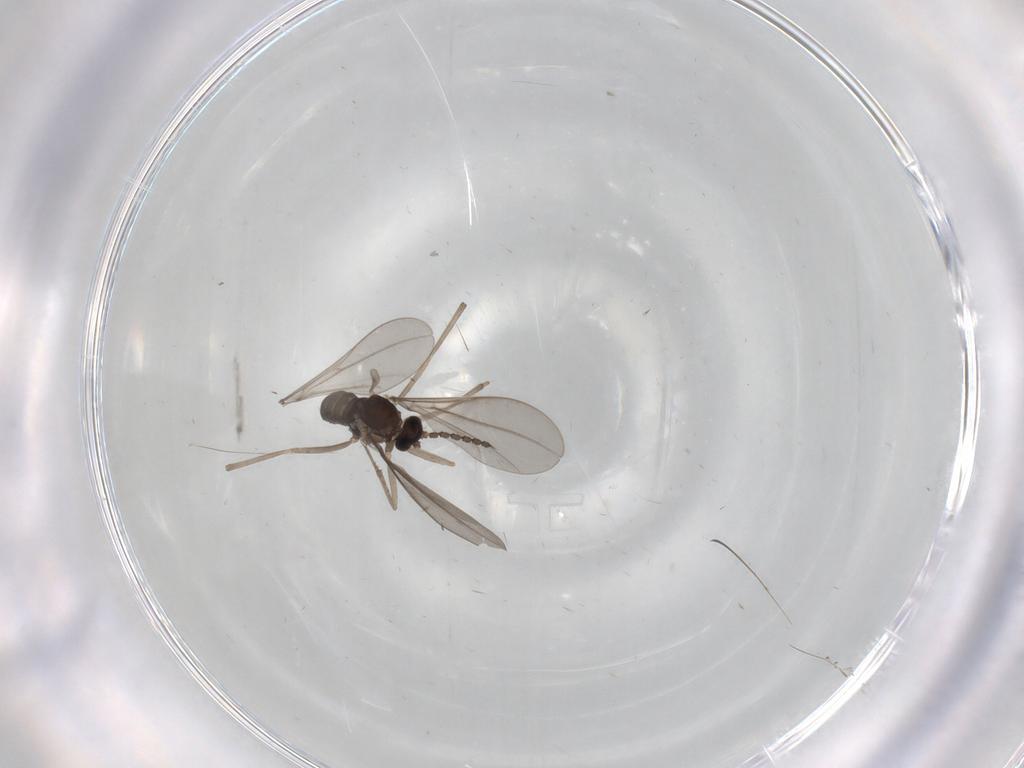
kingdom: Animalia
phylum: Arthropoda
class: Insecta
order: Diptera
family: Cecidomyiidae
